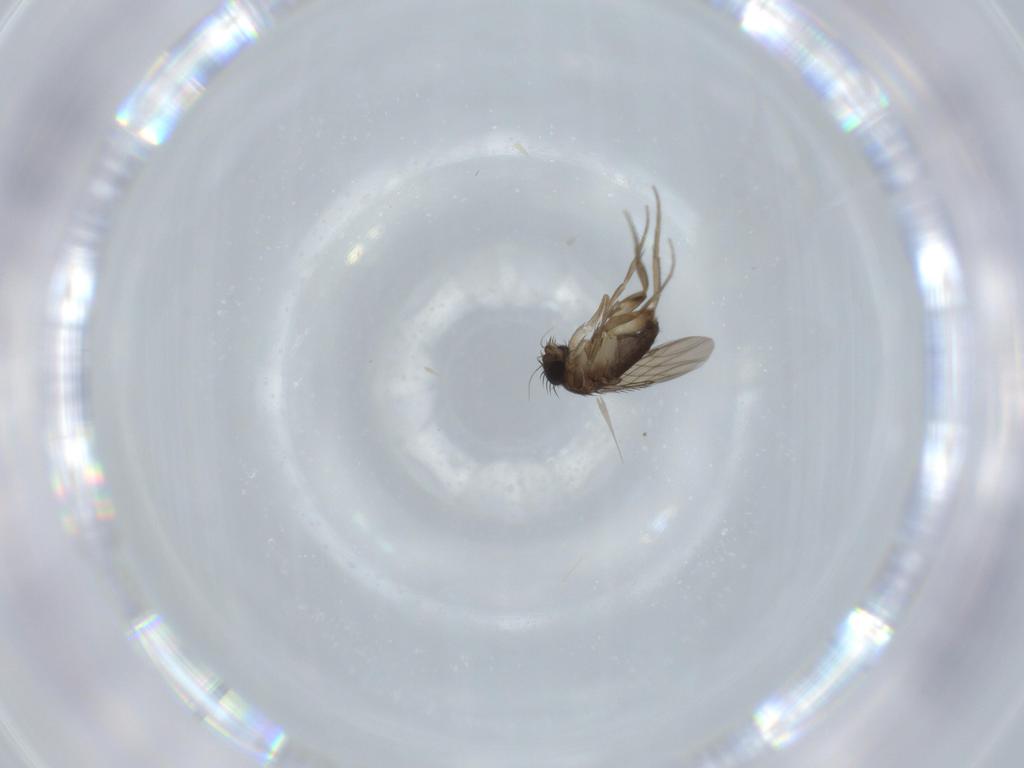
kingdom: Animalia
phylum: Arthropoda
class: Insecta
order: Diptera
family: Phoridae
